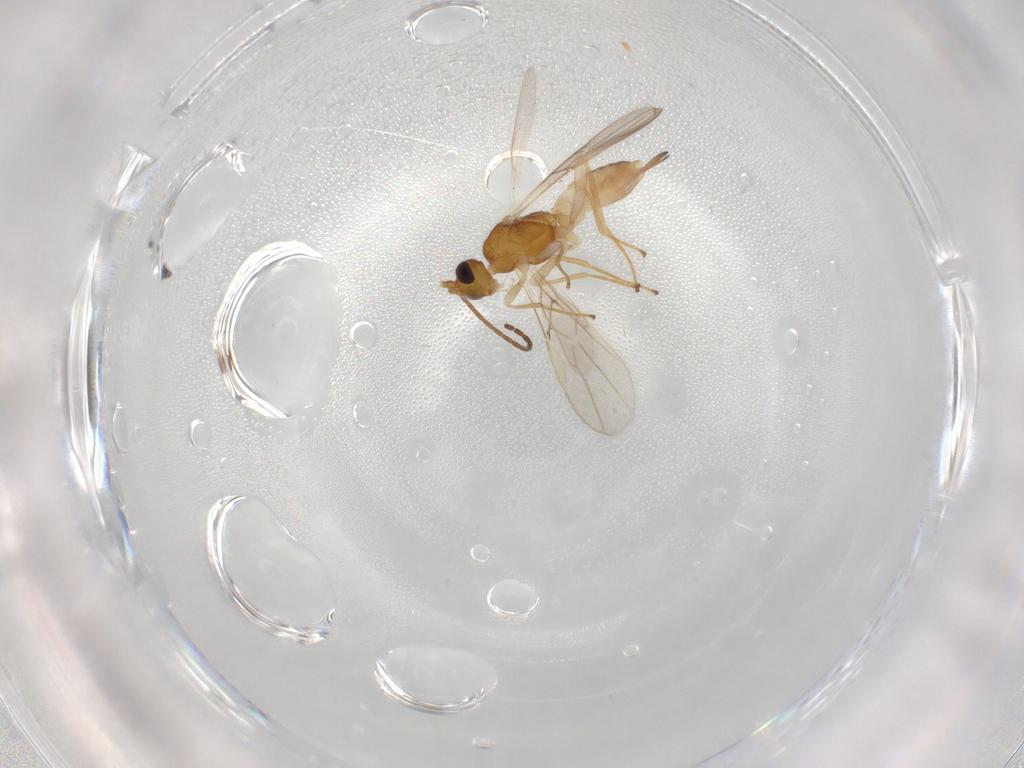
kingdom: Animalia
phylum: Arthropoda
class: Insecta
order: Hymenoptera
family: Braconidae
